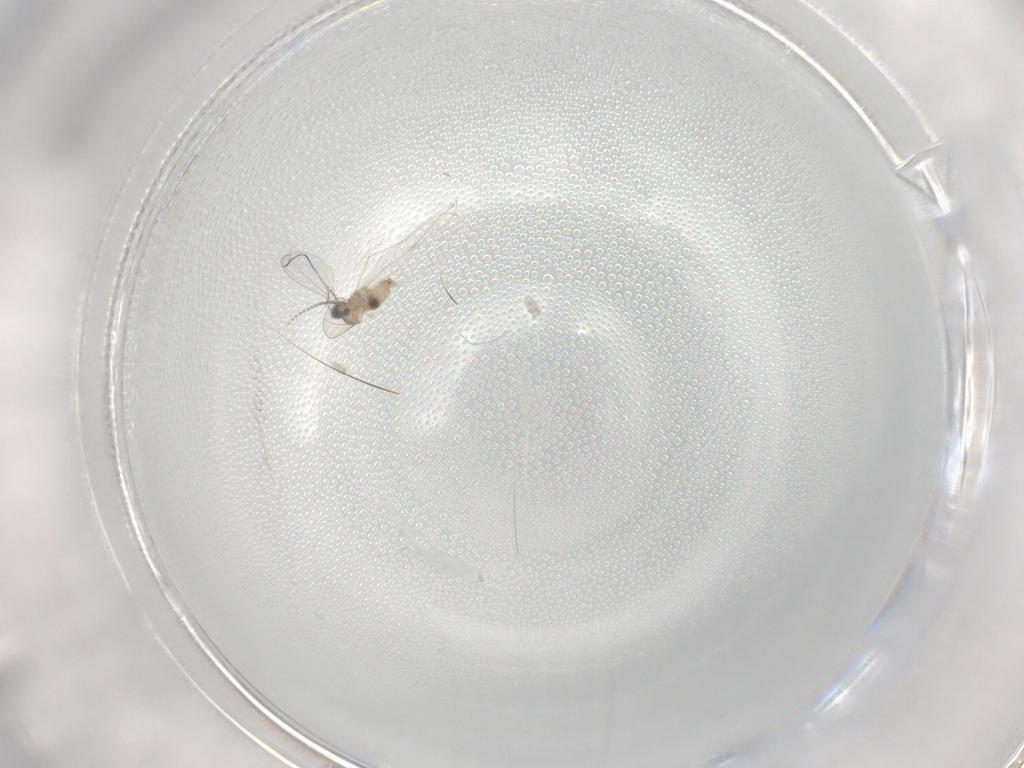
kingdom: Animalia
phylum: Arthropoda
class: Insecta
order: Diptera
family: Cecidomyiidae
